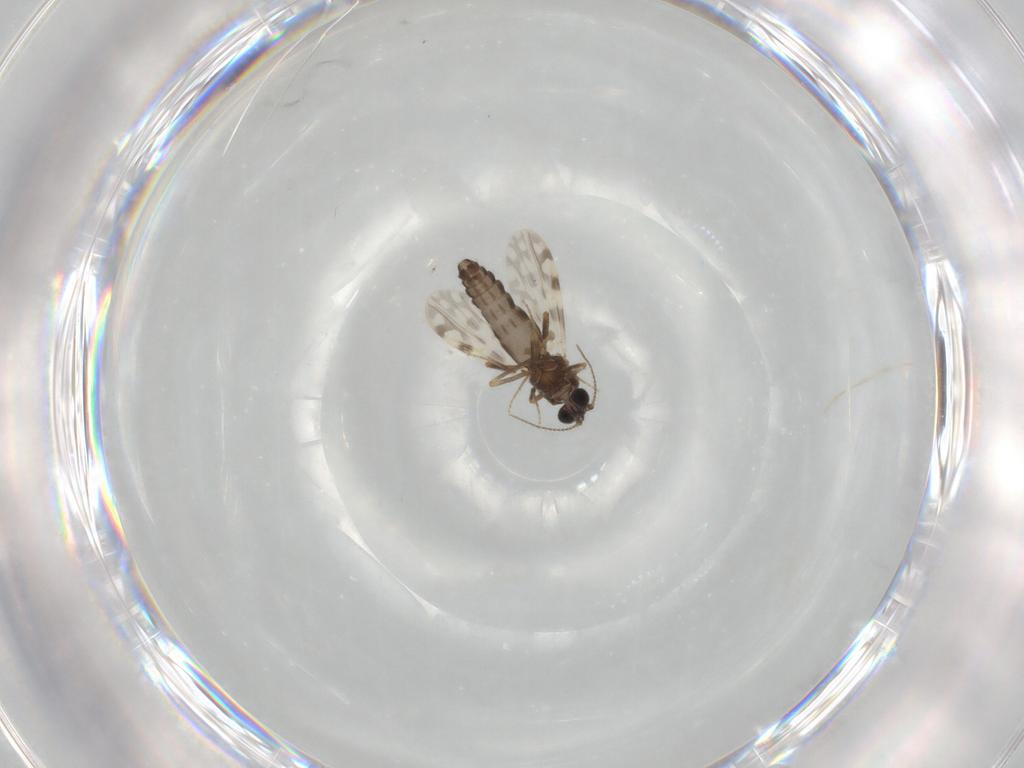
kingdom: Animalia
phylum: Arthropoda
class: Insecta
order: Diptera
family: Ceratopogonidae
